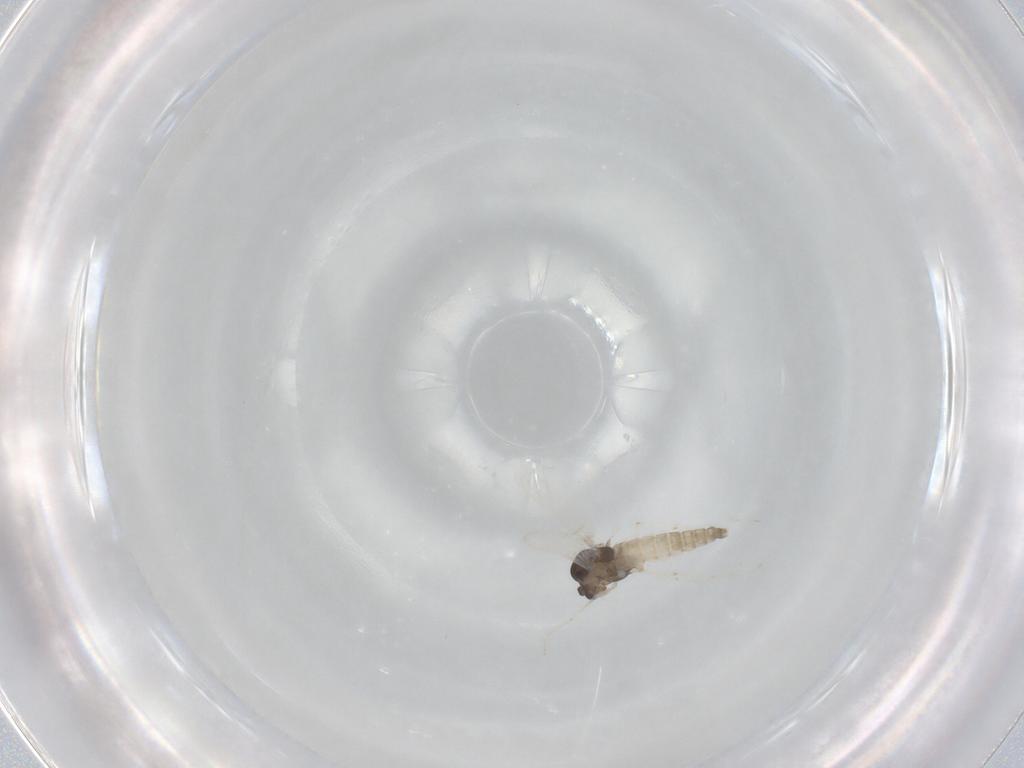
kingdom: Animalia
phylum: Arthropoda
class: Insecta
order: Diptera
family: Chironomidae
